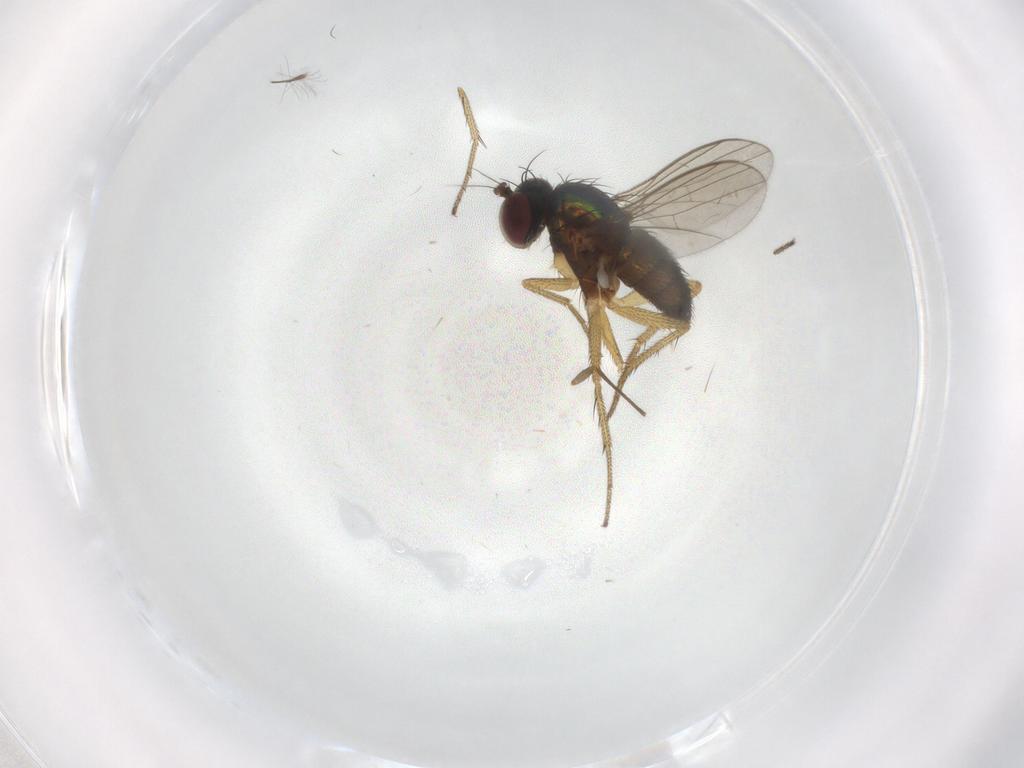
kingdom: Animalia
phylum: Arthropoda
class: Insecta
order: Diptera
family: Chironomidae
